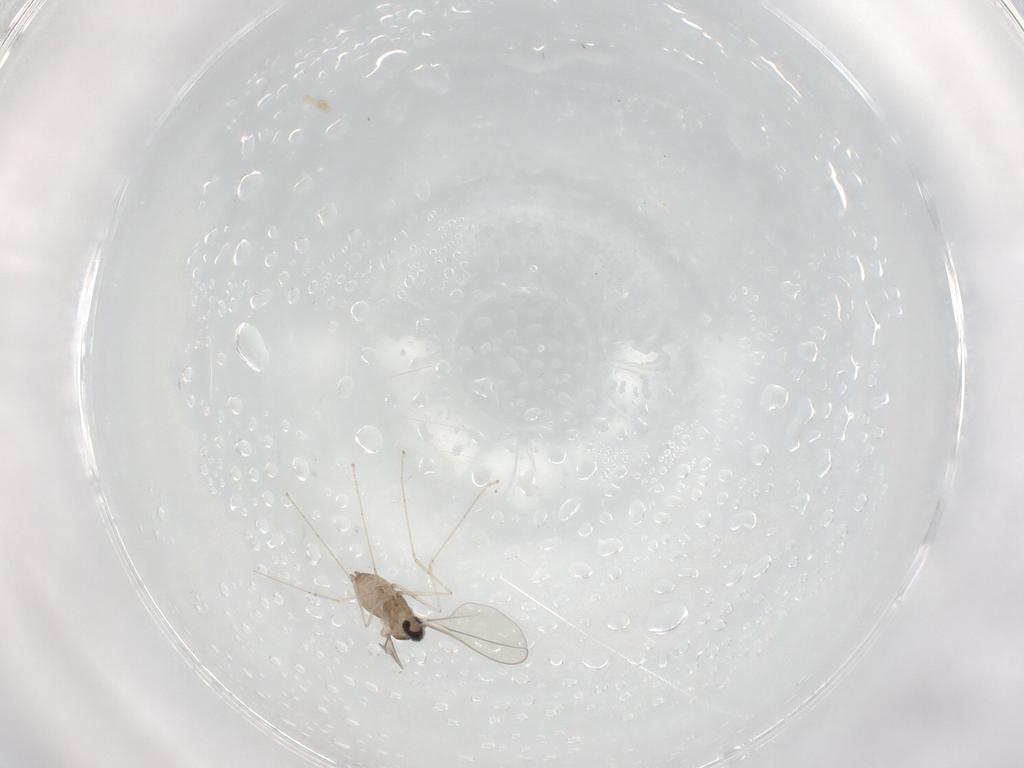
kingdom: Animalia
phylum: Arthropoda
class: Insecta
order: Diptera
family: Cecidomyiidae
